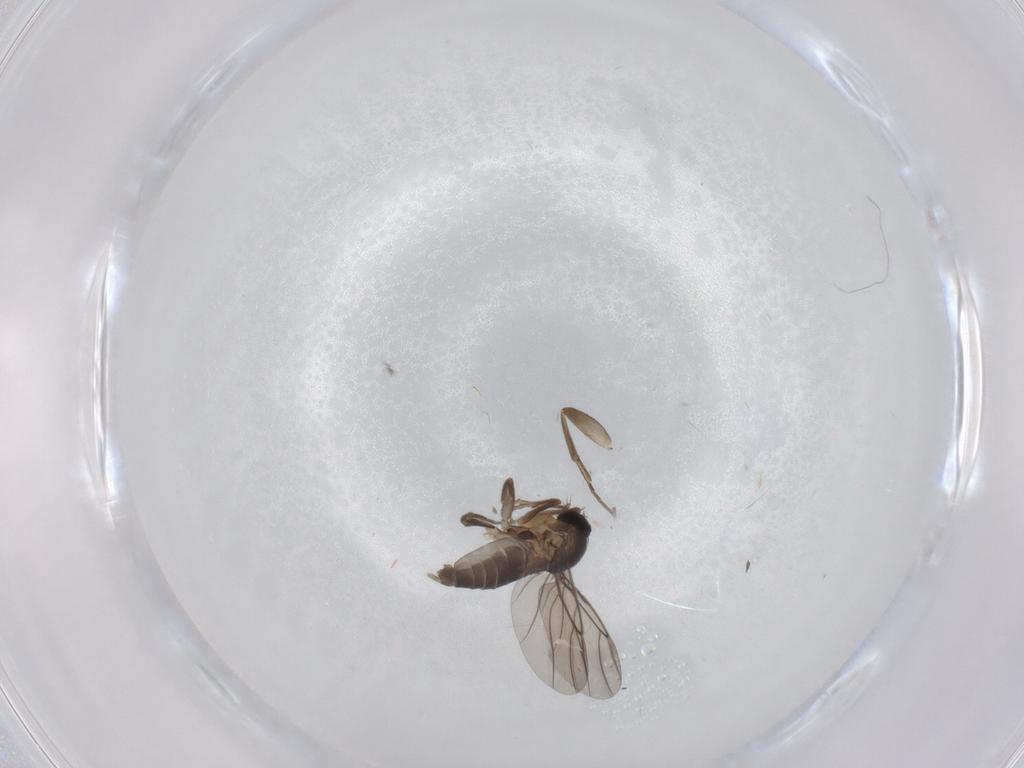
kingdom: Animalia
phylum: Arthropoda
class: Insecta
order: Diptera
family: Phoridae
